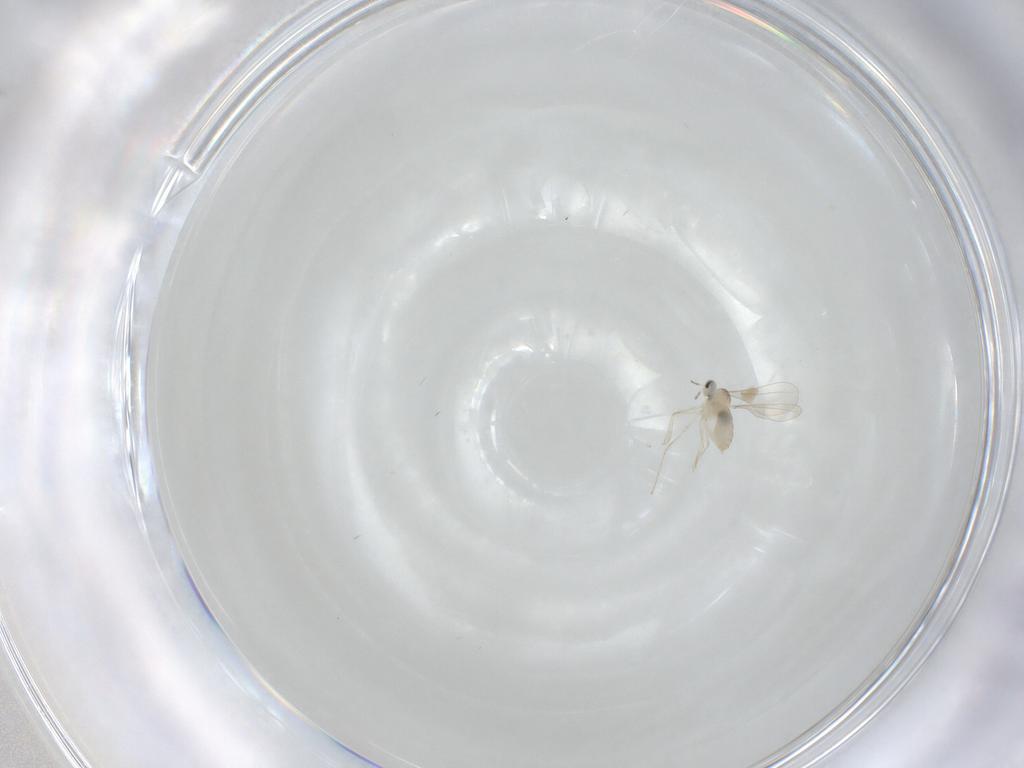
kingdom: Animalia
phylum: Arthropoda
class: Insecta
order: Diptera
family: Cecidomyiidae
